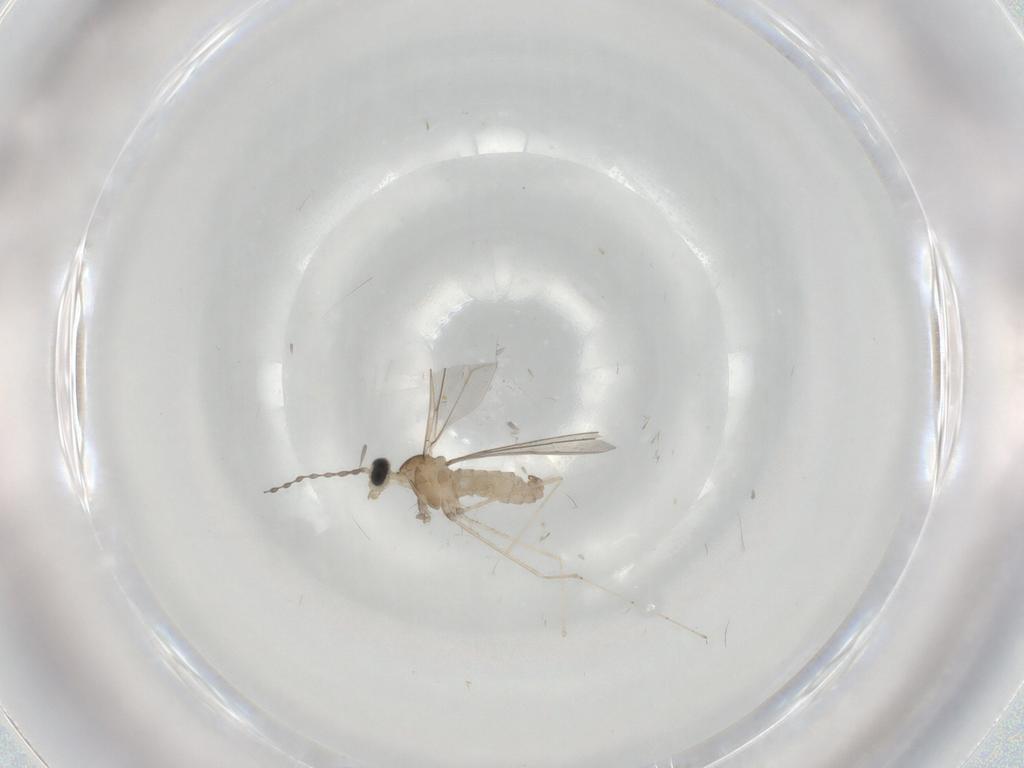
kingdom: Animalia
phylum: Arthropoda
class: Insecta
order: Diptera
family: Cecidomyiidae
